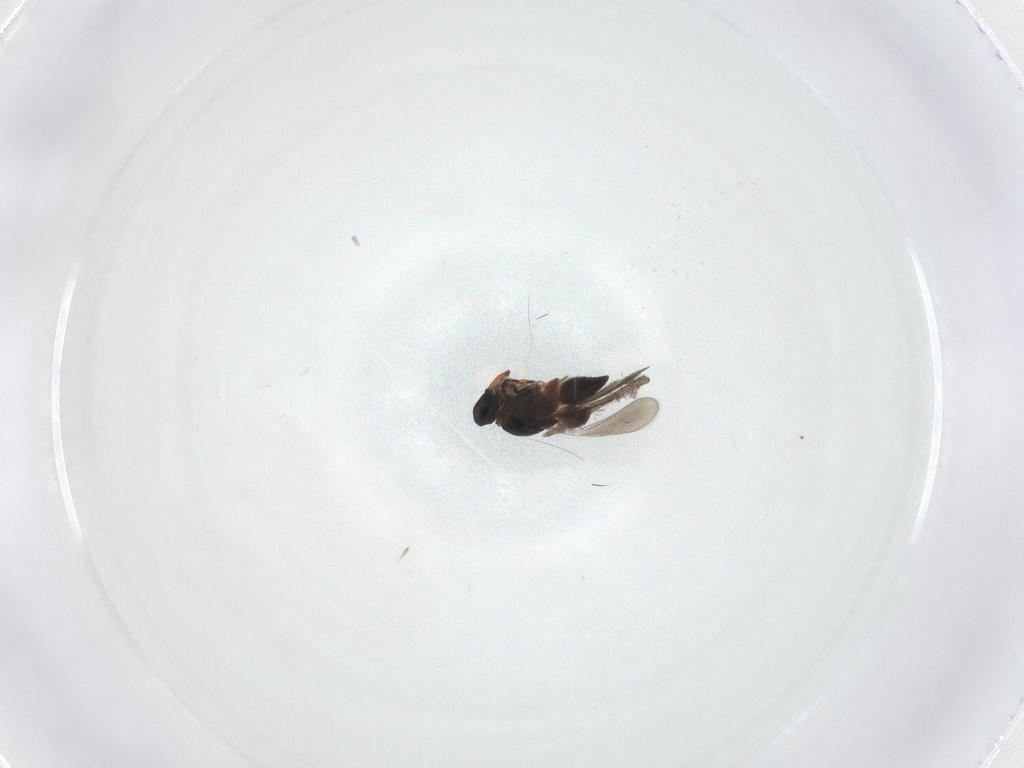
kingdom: Animalia
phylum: Arthropoda
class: Insecta
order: Hymenoptera
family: Platygastridae
